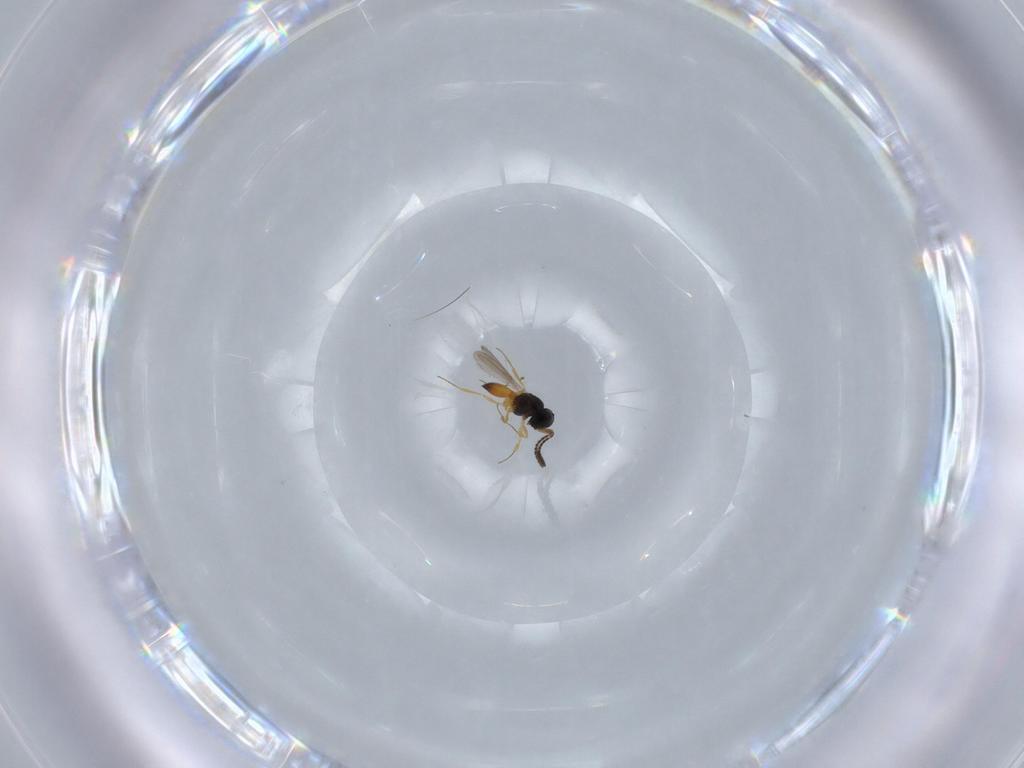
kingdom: Animalia
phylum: Arthropoda
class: Insecta
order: Hymenoptera
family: Scelionidae
